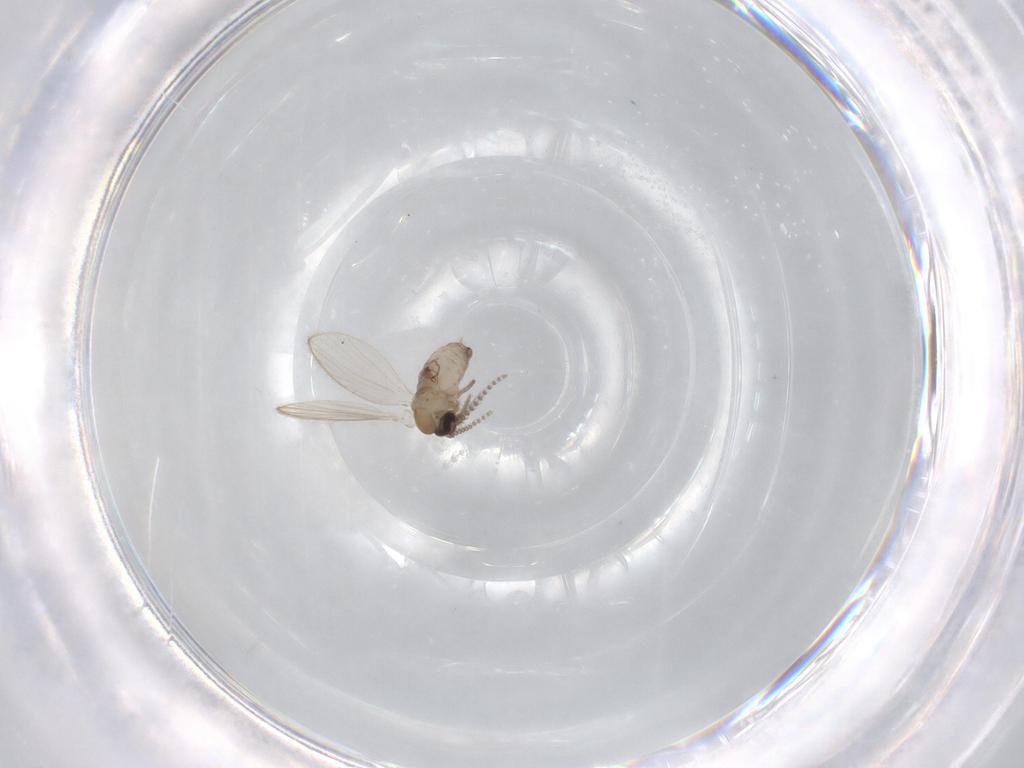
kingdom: Animalia
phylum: Arthropoda
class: Insecta
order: Diptera
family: Psychodidae
